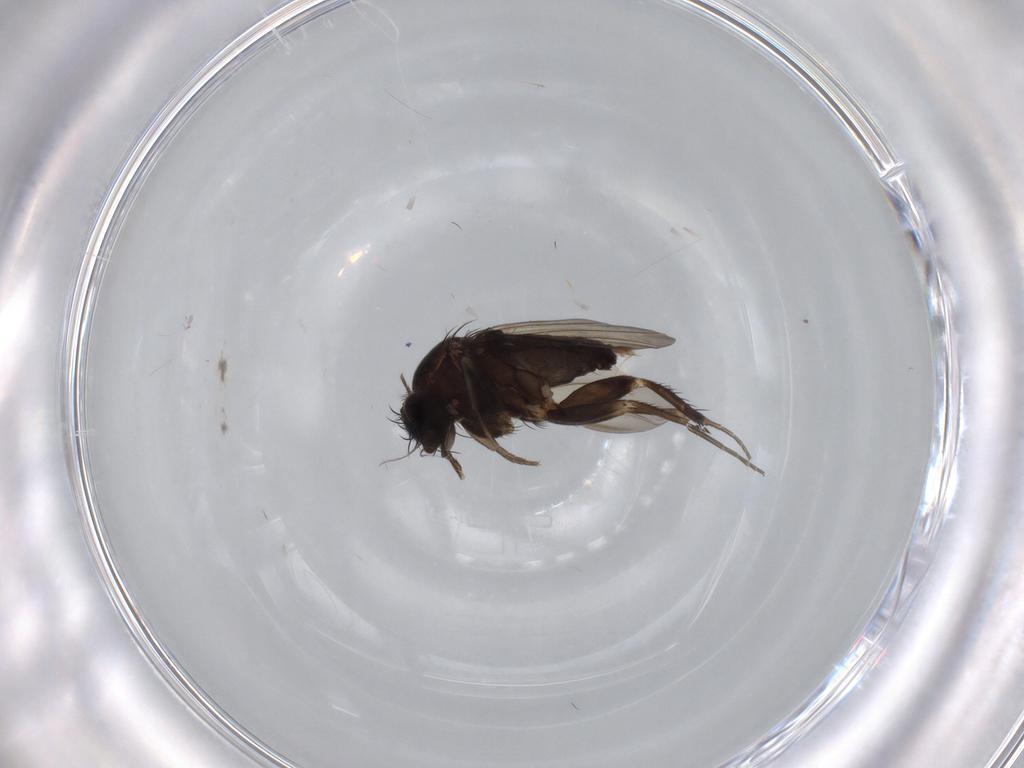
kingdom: Animalia
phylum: Arthropoda
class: Insecta
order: Diptera
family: Phoridae
